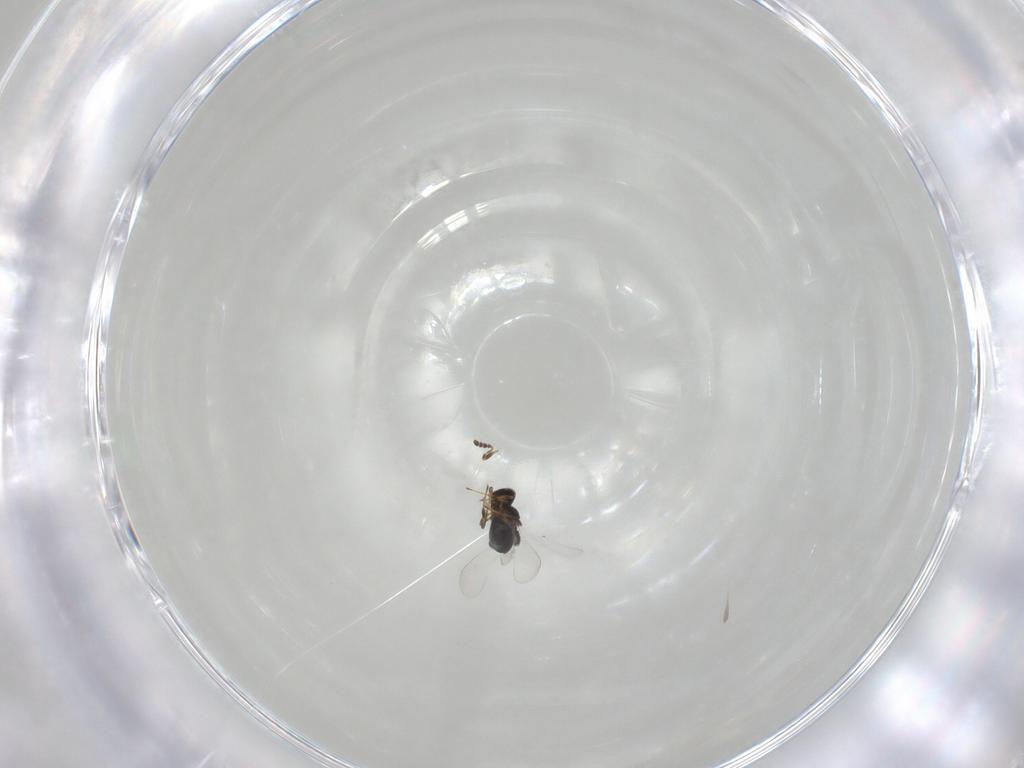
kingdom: Animalia
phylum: Arthropoda
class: Insecta
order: Hymenoptera
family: Platygastridae
